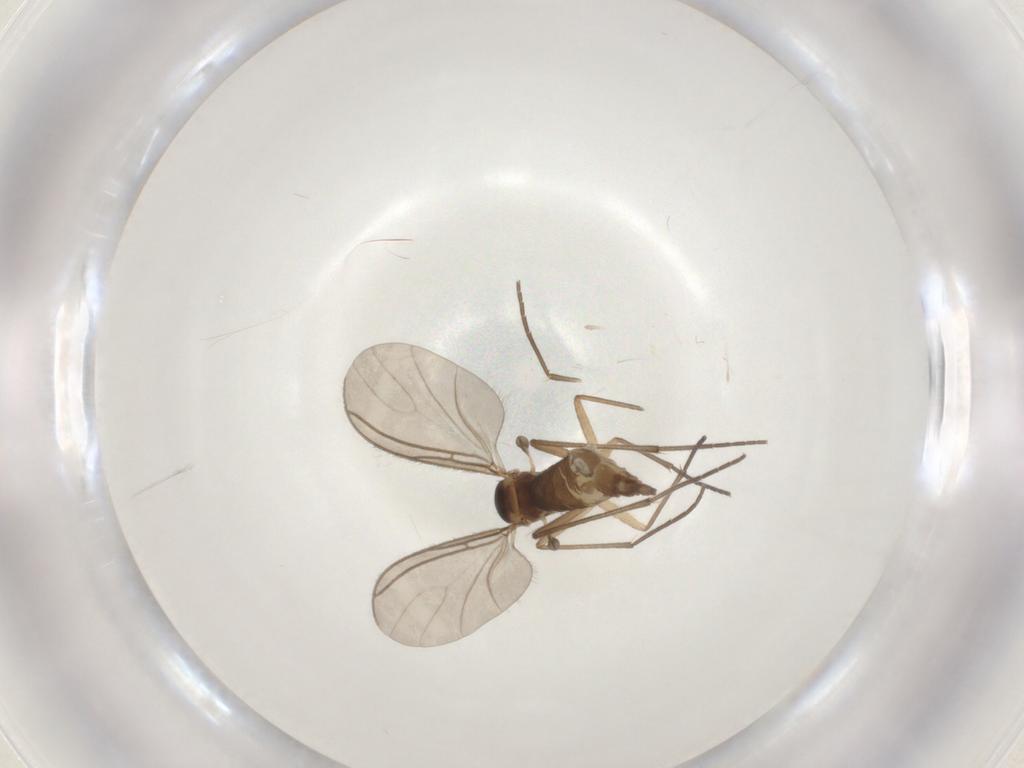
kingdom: Animalia
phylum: Arthropoda
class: Insecta
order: Diptera
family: Sciaridae
